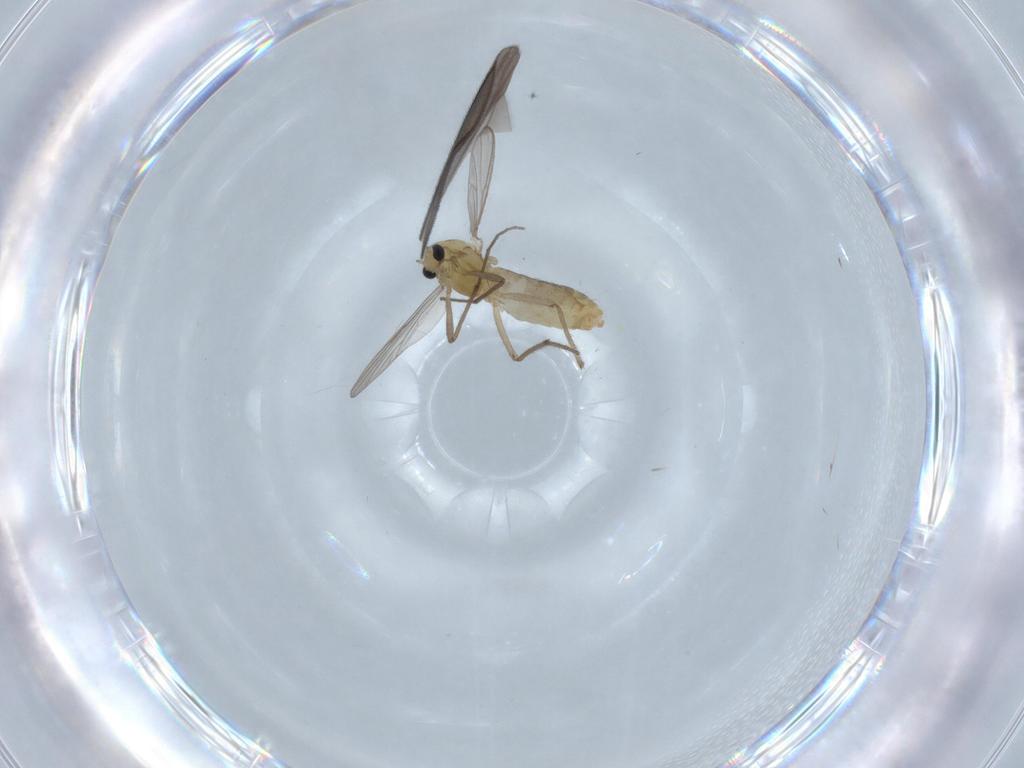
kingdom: Animalia
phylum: Arthropoda
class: Insecta
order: Diptera
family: Chironomidae
